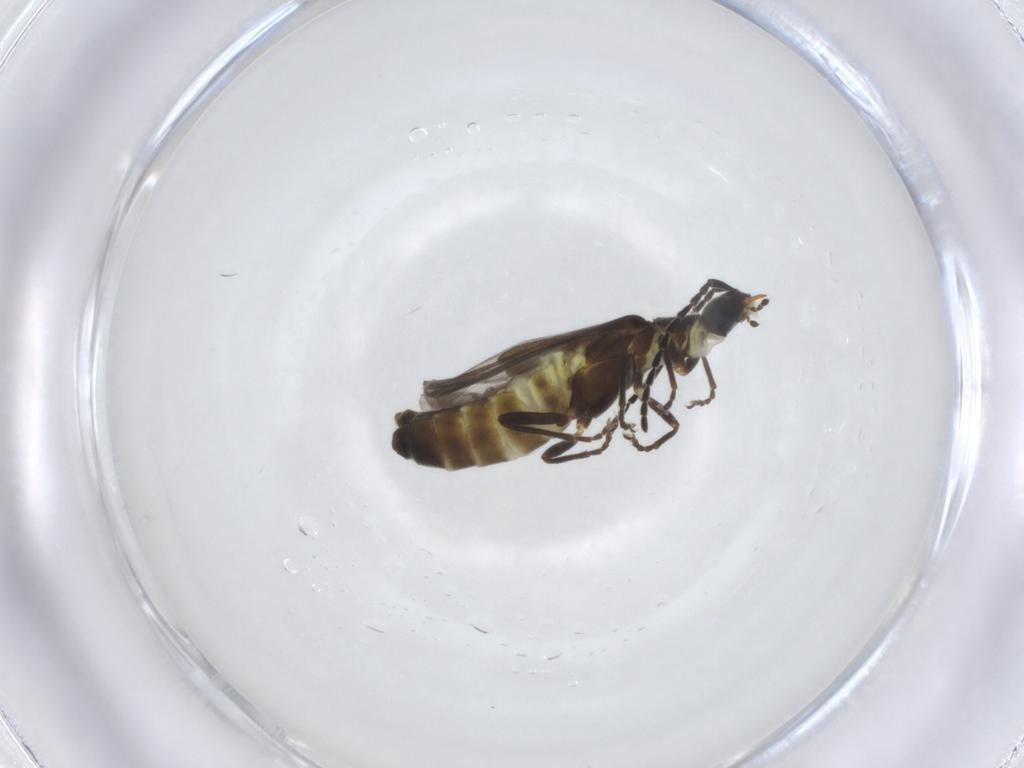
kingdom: Animalia
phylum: Arthropoda
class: Insecta
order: Coleoptera
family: Cantharidae
